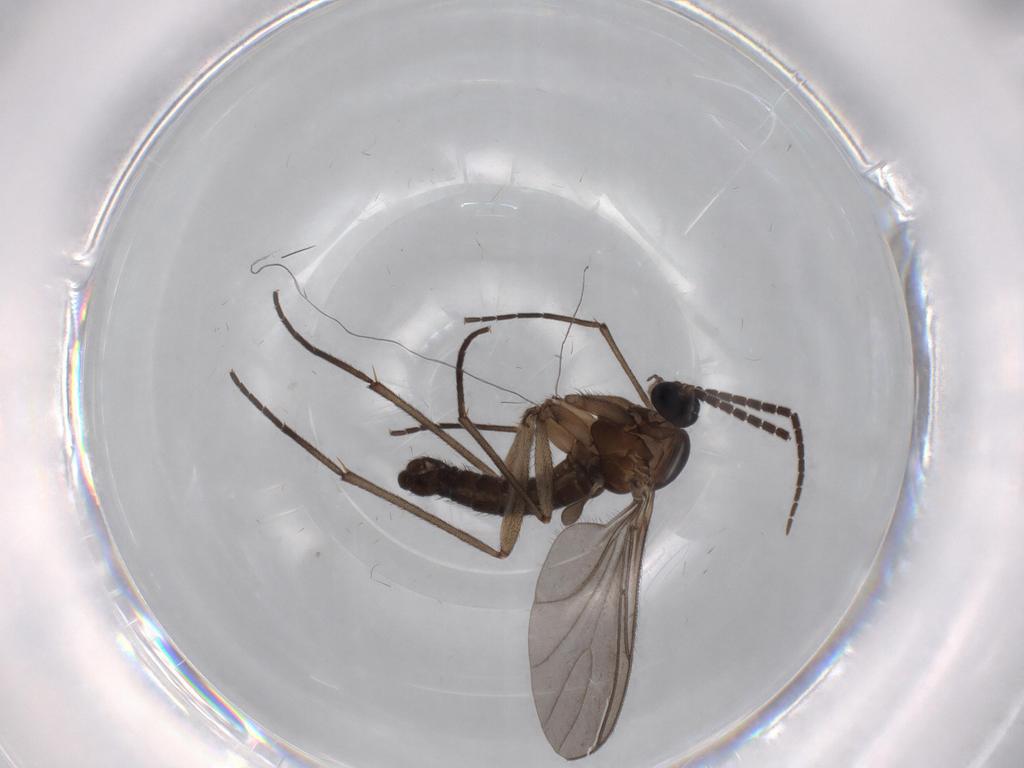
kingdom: Animalia
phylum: Arthropoda
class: Insecta
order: Diptera
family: Sciaridae
